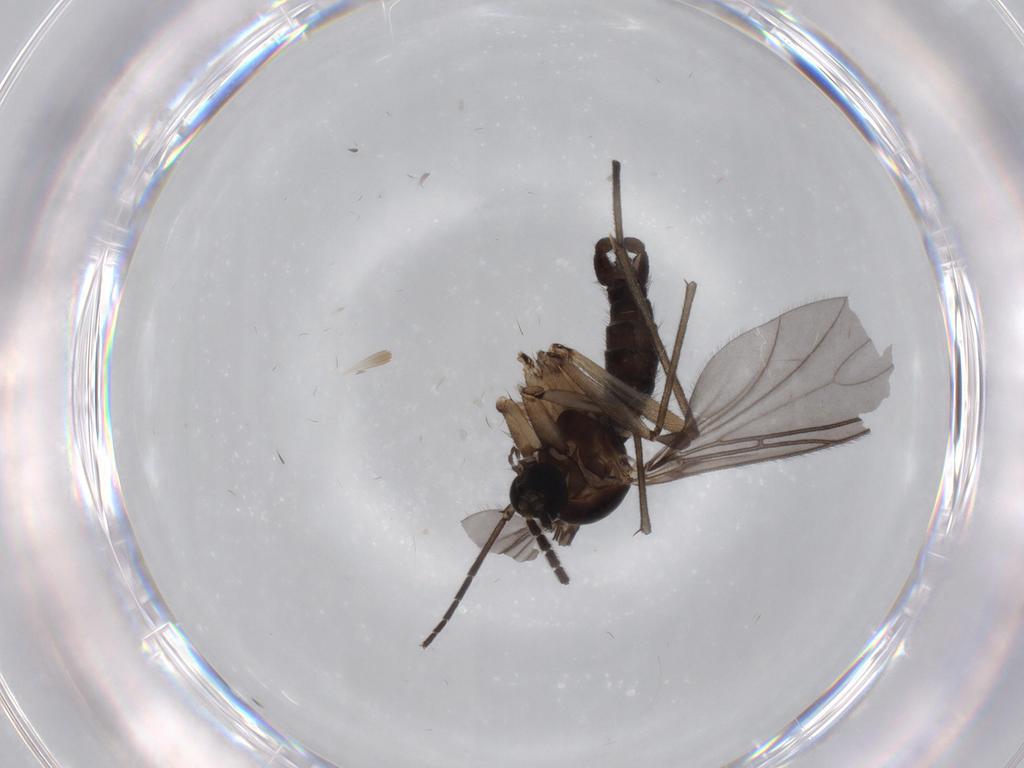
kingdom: Animalia
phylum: Arthropoda
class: Insecta
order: Diptera
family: Sciaridae
